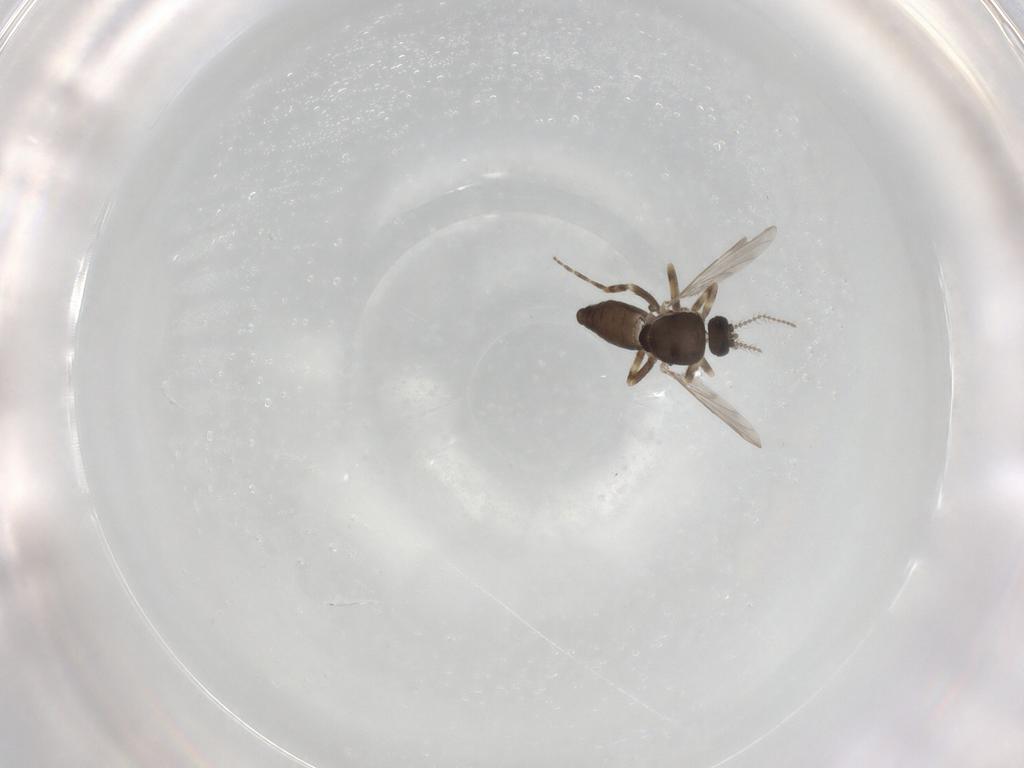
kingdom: Animalia
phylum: Arthropoda
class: Insecta
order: Diptera
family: Ceratopogonidae
